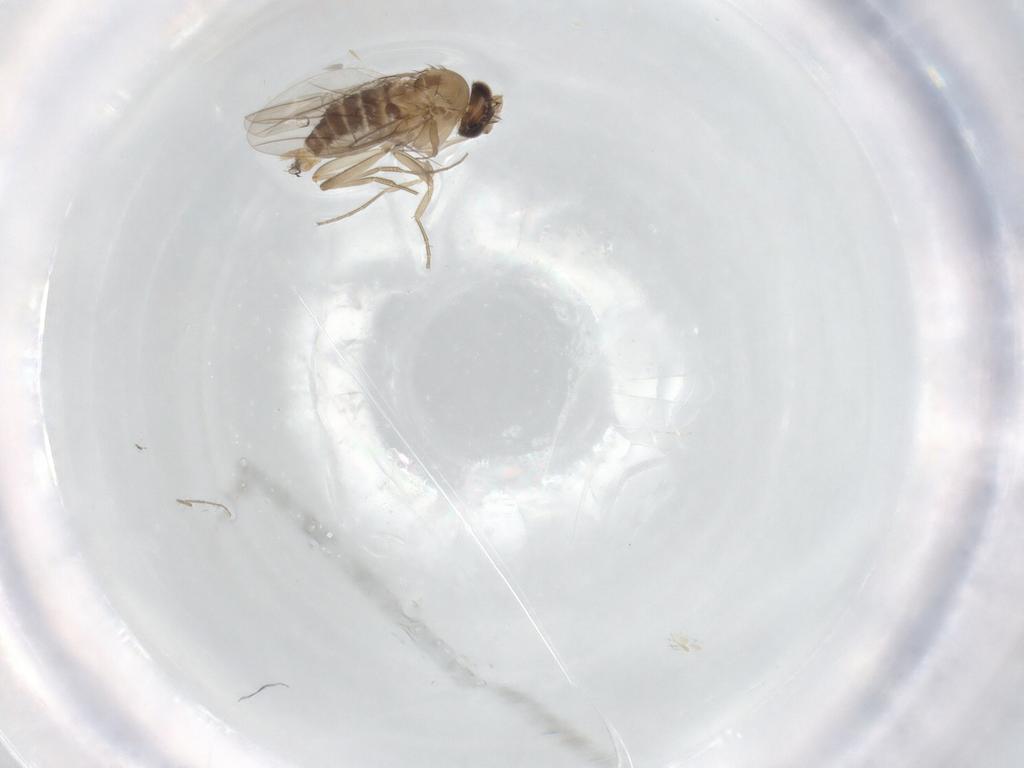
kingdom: Animalia
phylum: Arthropoda
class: Insecta
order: Diptera
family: Phoridae
